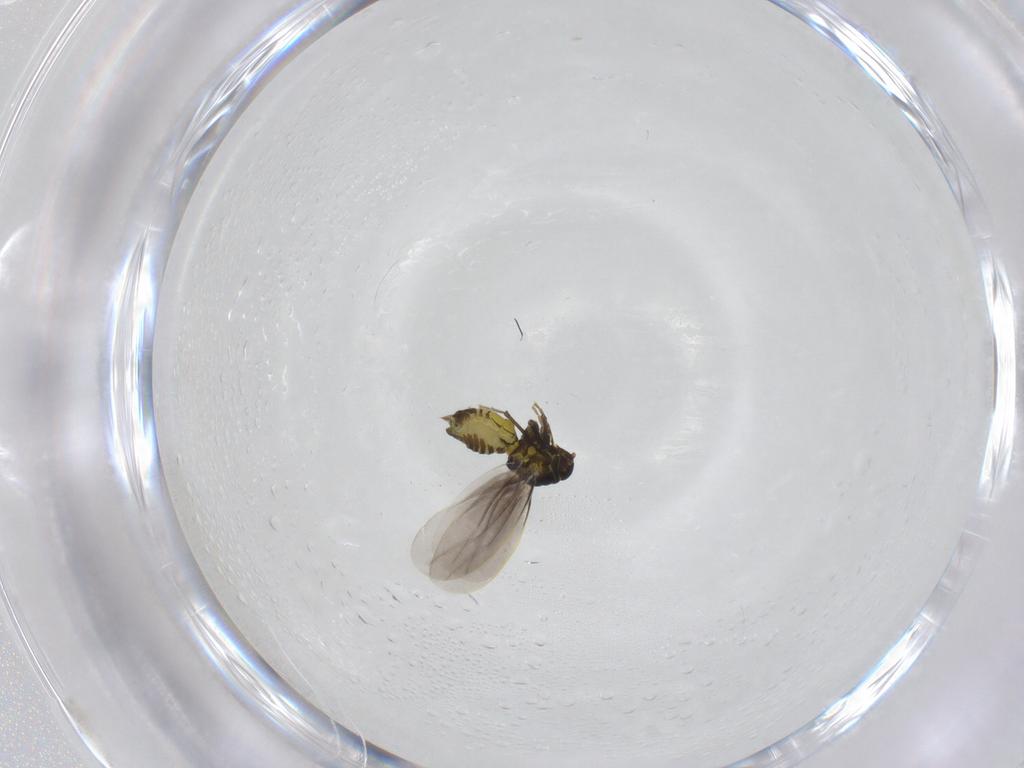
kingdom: Animalia
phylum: Arthropoda
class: Insecta
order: Hemiptera
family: Aleyrodidae
